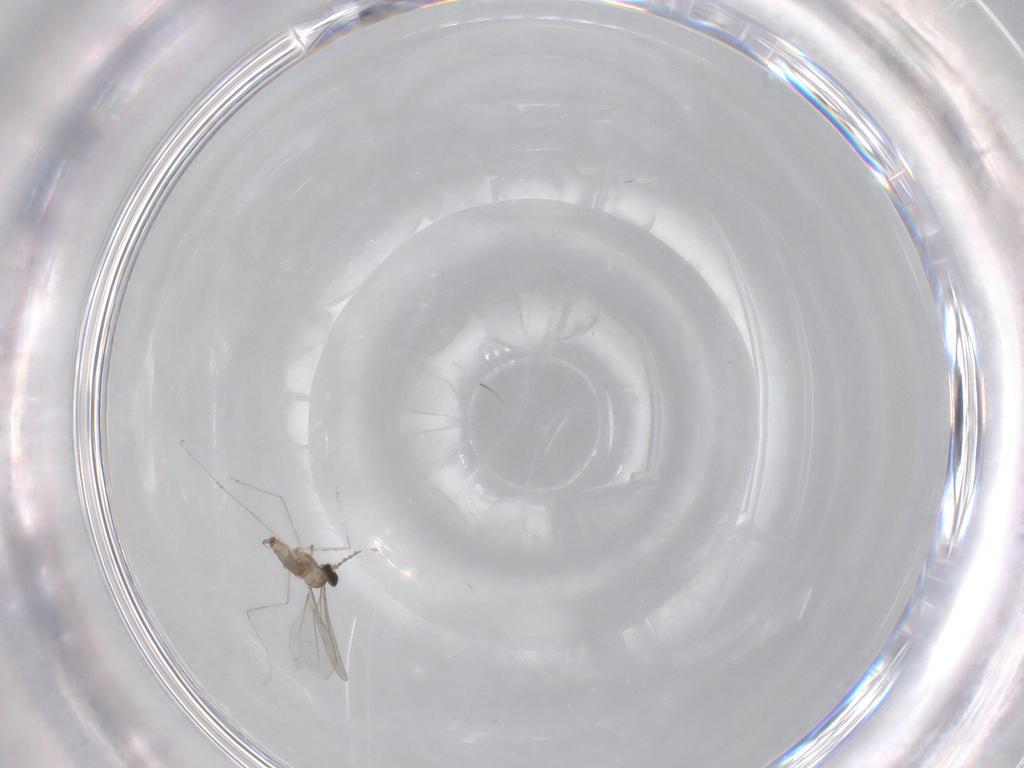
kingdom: Animalia
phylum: Arthropoda
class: Insecta
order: Diptera
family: Cecidomyiidae
